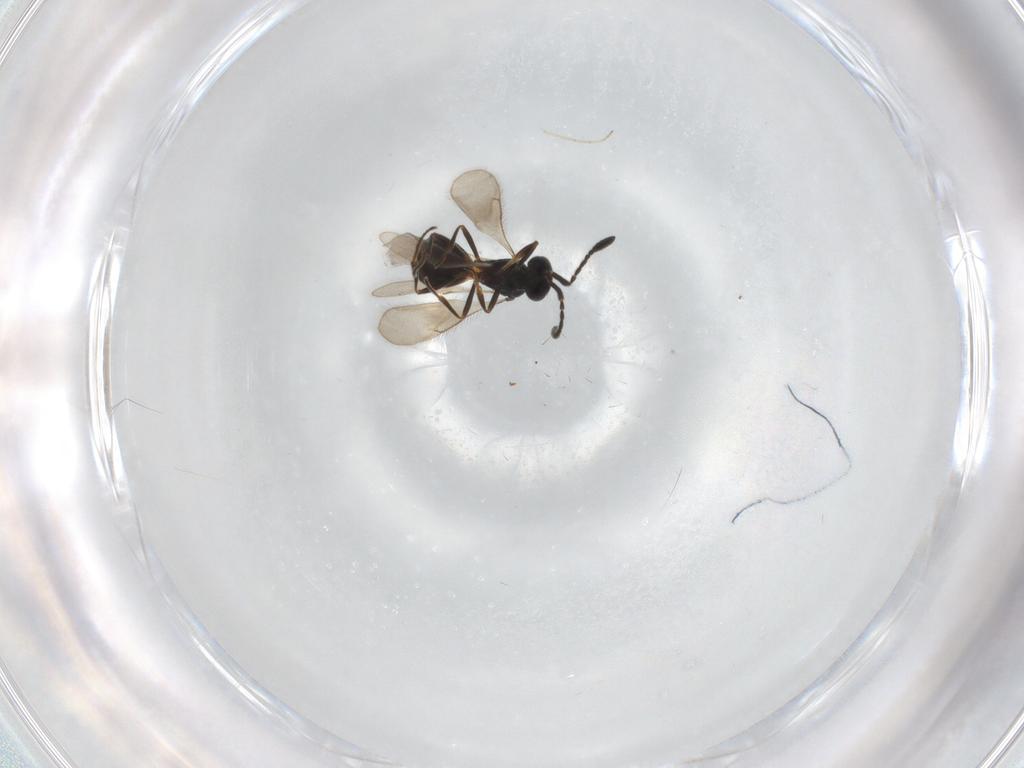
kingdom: Animalia
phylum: Arthropoda
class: Insecta
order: Hymenoptera
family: Scelionidae
